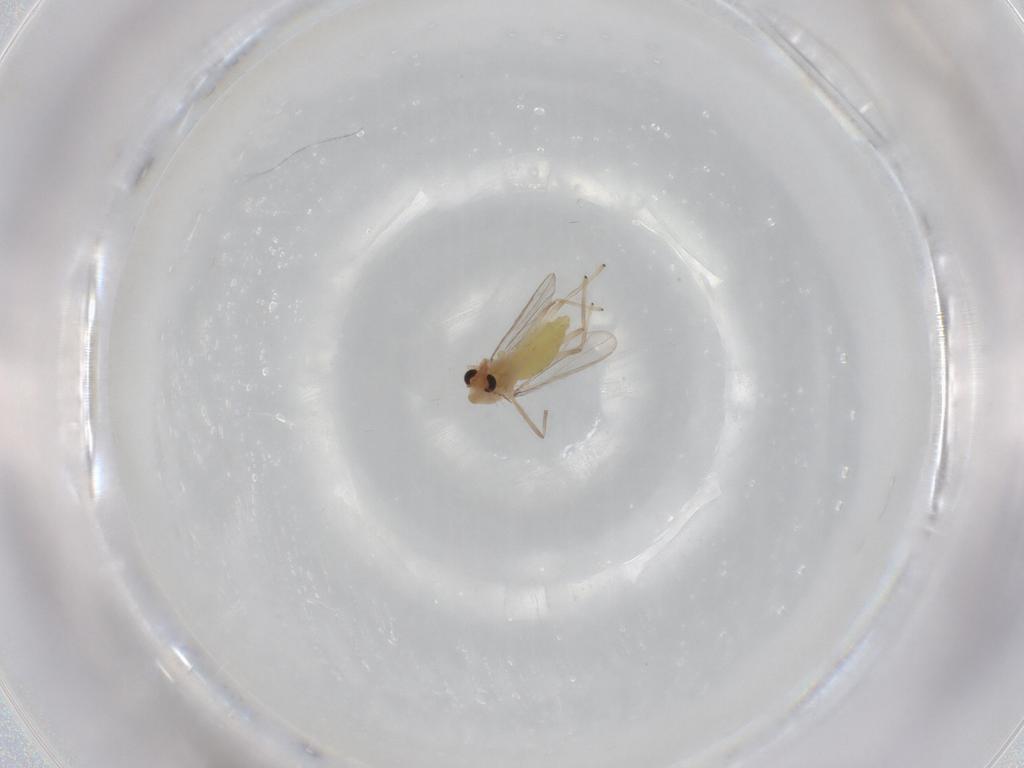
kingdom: Animalia
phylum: Arthropoda
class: Insecta
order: Diptera
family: Chironomidae
